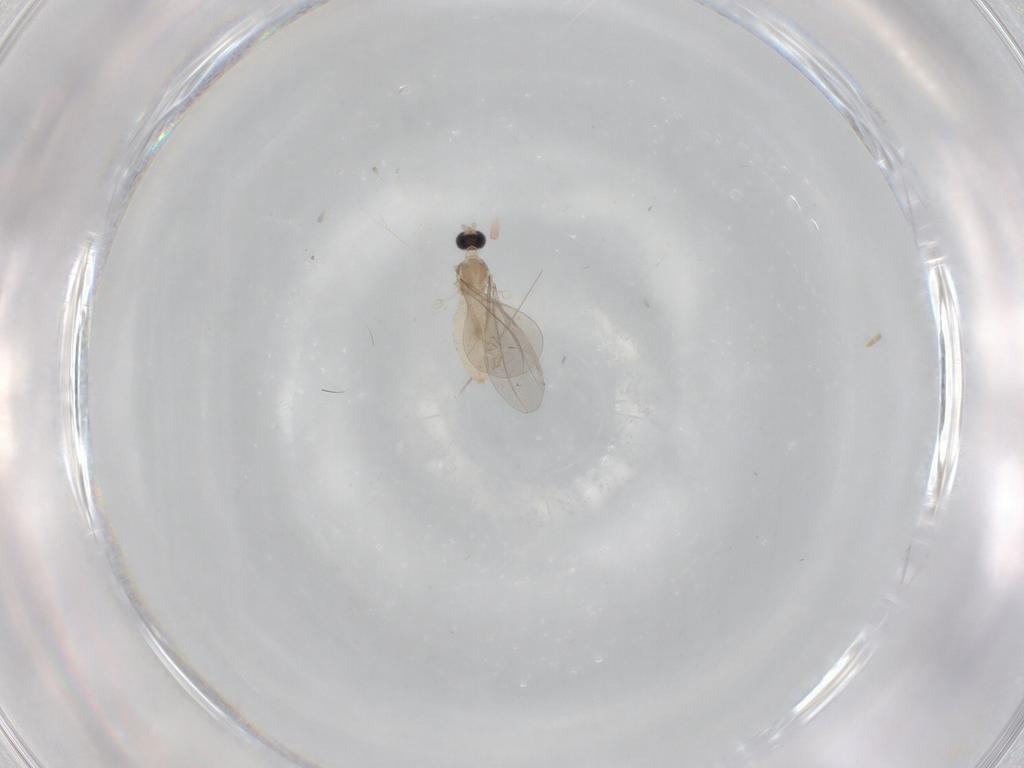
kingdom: Animalia
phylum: Arthropoda
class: Insecta
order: Diptera
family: Cecidomyiidae
